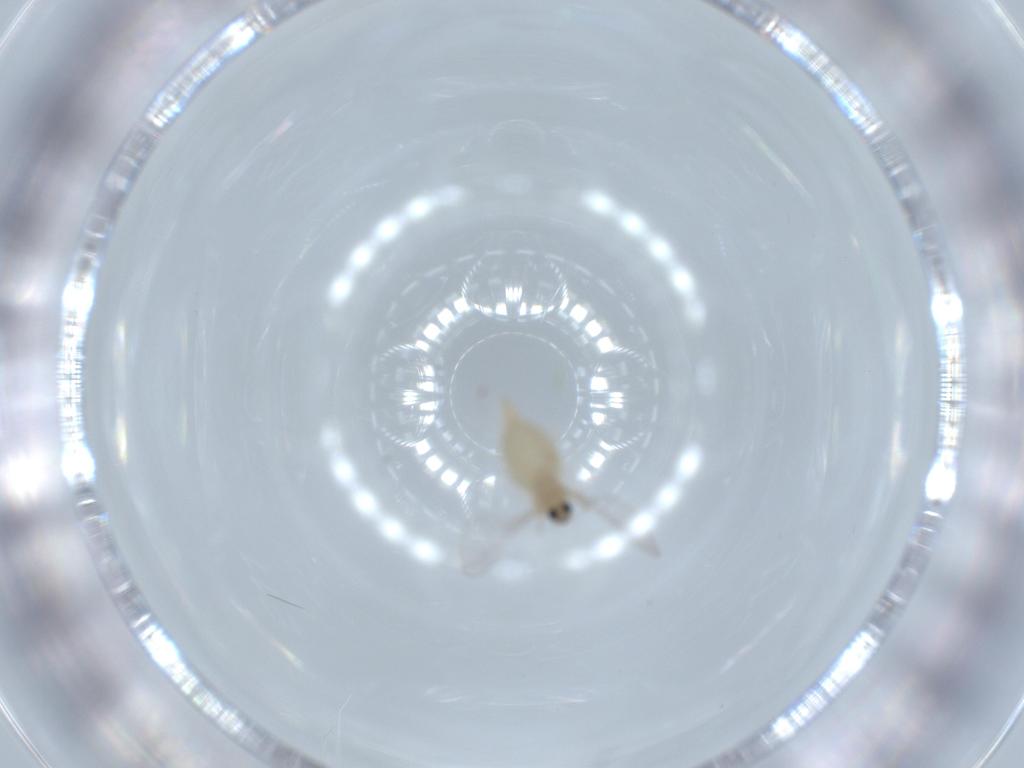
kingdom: Animalia
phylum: Arthropoda
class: Insecta
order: Diptera
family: Cecidomyiidae
